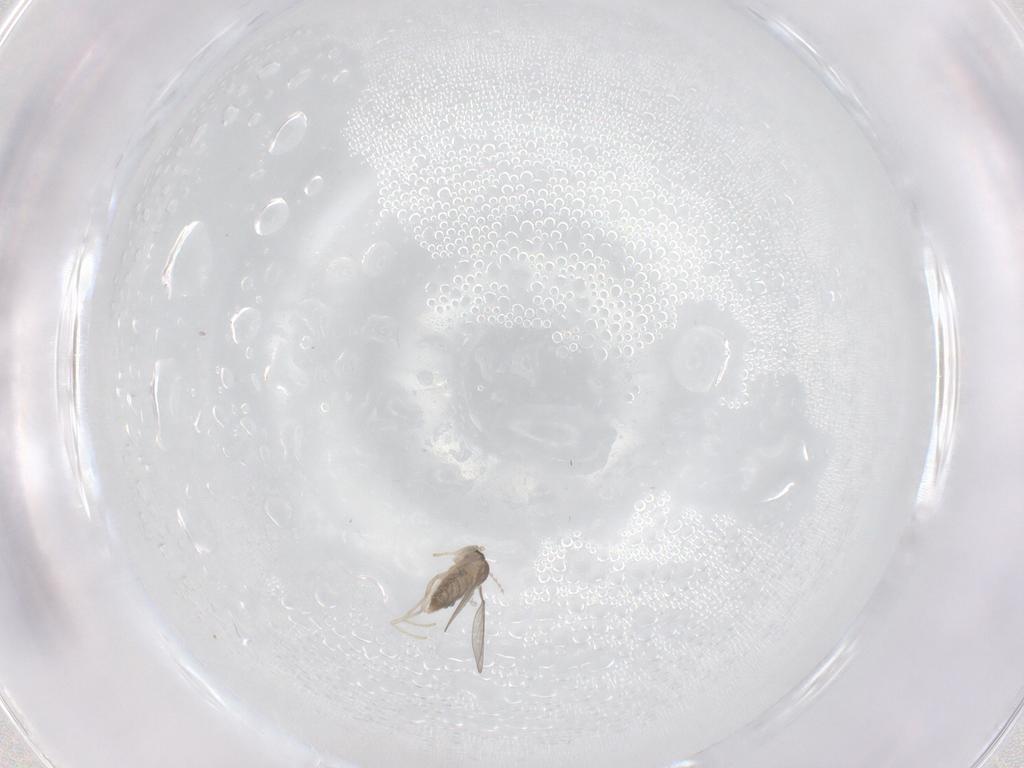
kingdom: Animalia
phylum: Arthropoda
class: Insecta
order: Diptera
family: Cecidomyiidae
